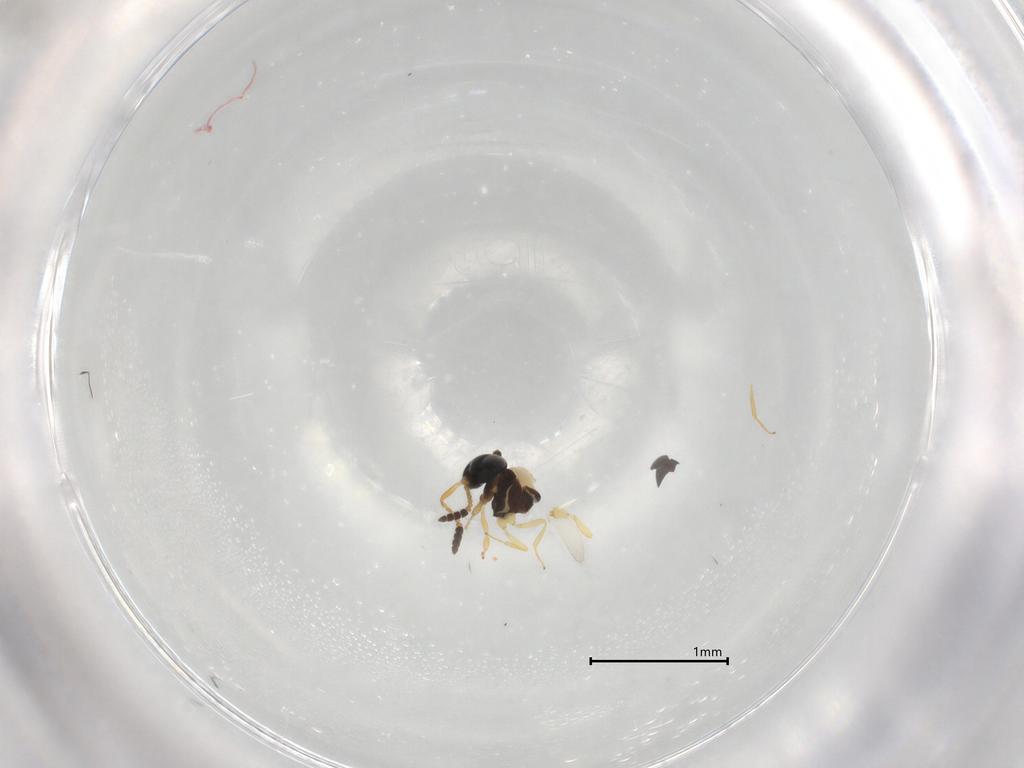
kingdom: Animalia
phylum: Arthropoda
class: Insecta
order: Hymenoptera
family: Scelionidae
